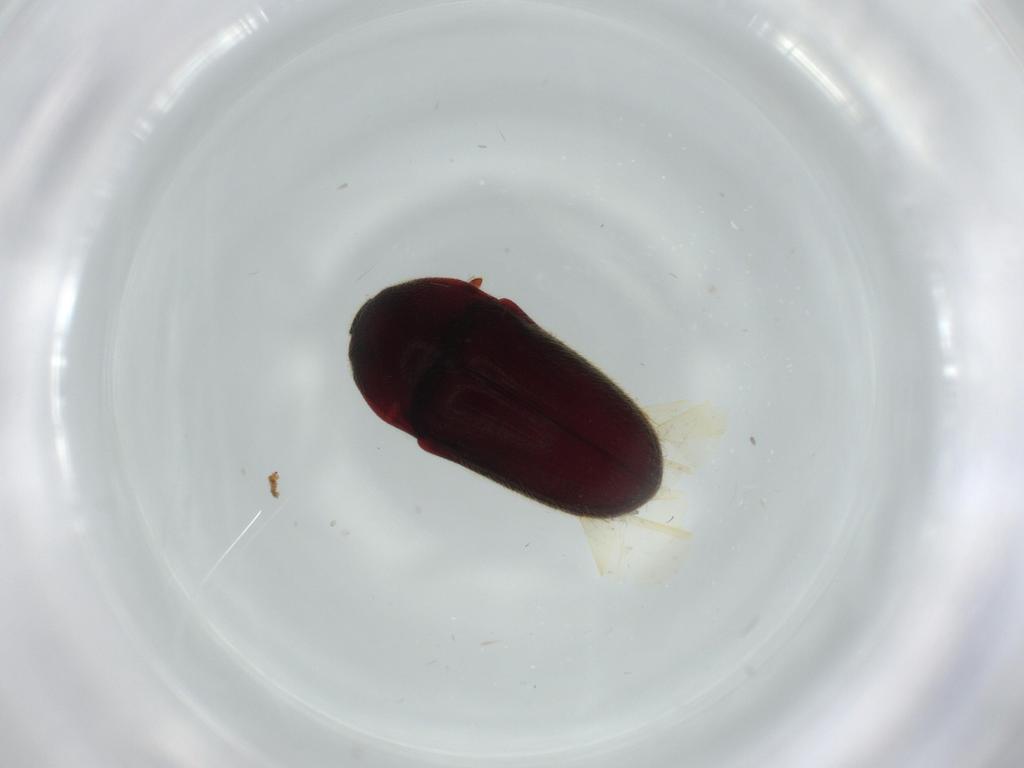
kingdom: Animalia
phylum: Arthropoda
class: Insecta
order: Coleoptera
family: Throscidae
